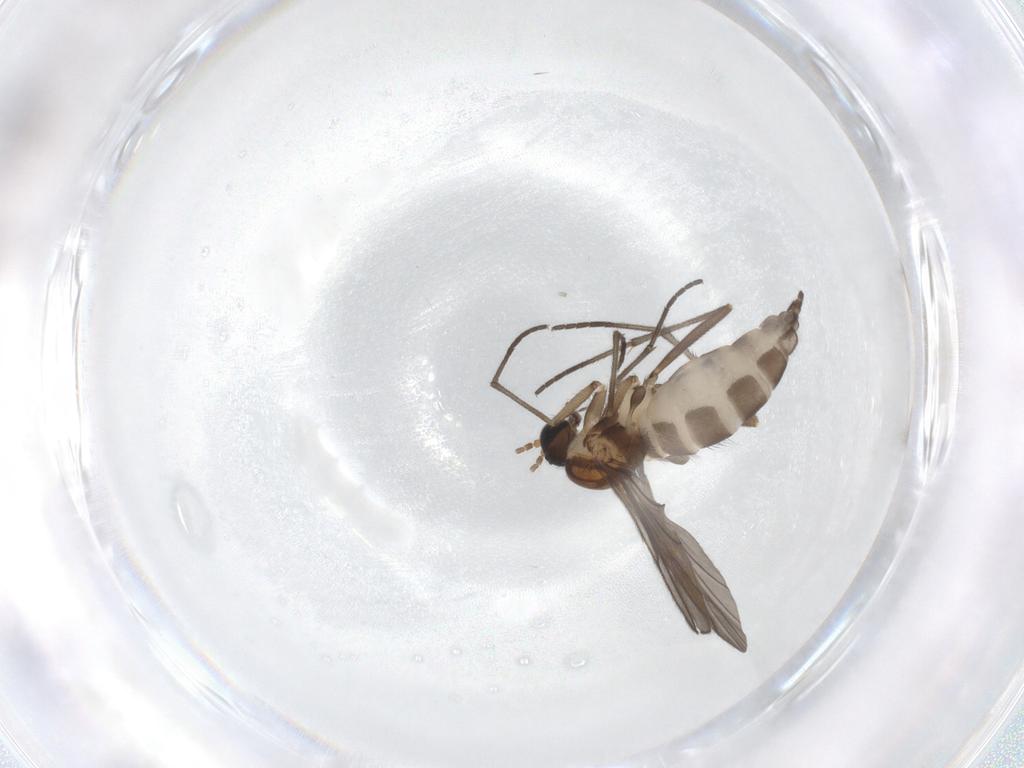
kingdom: Animalia
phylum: Arthropoda
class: Insecta
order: Diptera
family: Sciaridae
